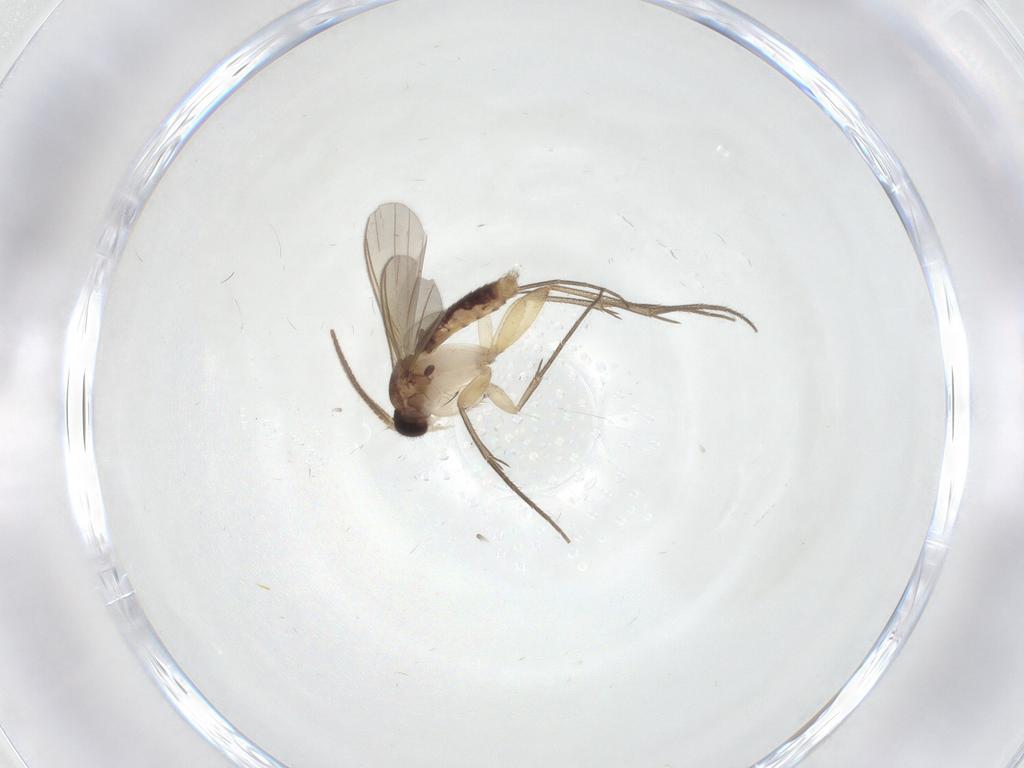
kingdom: Animalia
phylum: Arthropoda
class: Insecta
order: Diptera
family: Mycetophilidae
